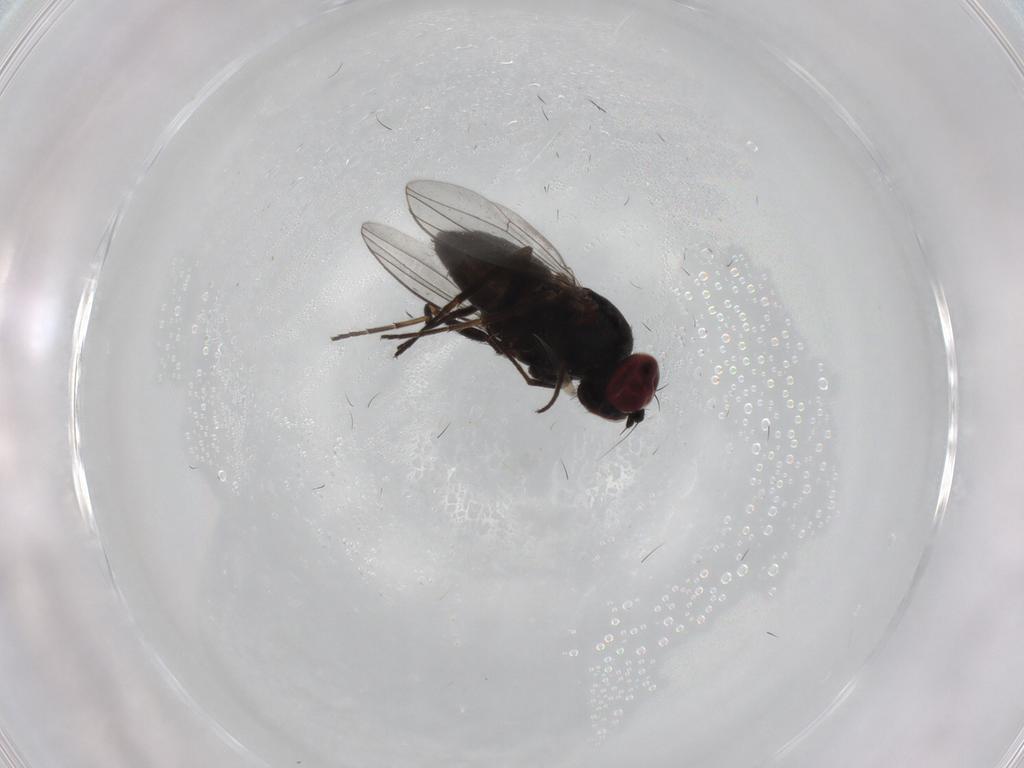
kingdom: Animalia
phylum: Arthropoda
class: Insecta
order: Diptera
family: Dolichopodidae
